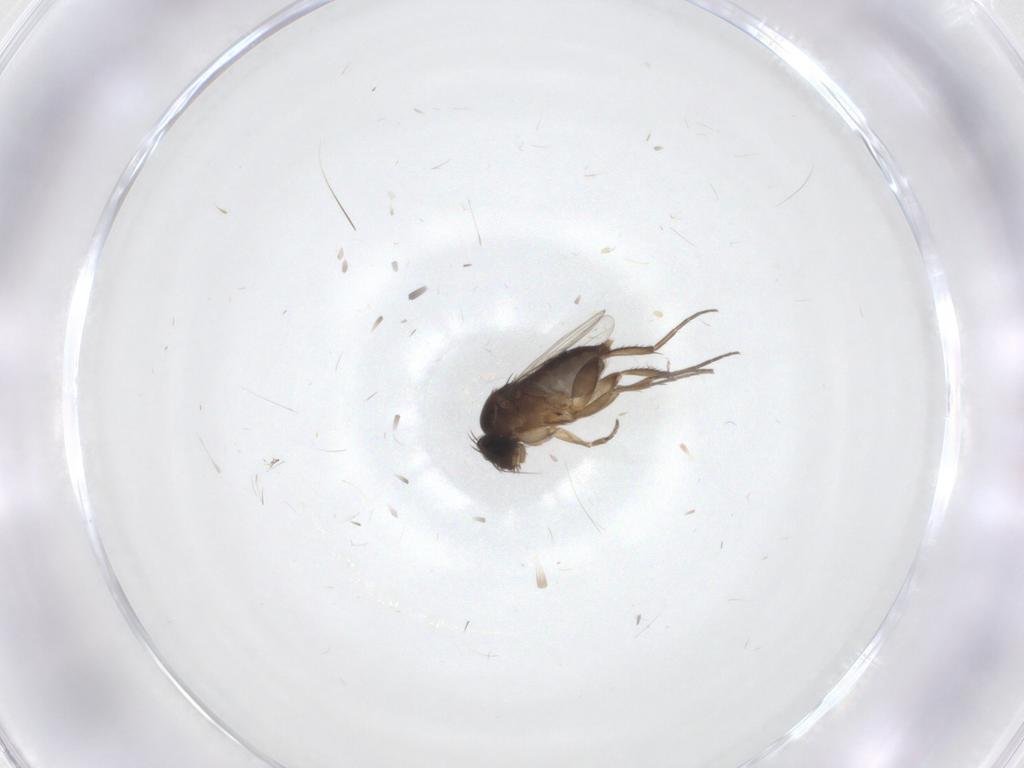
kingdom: Animalia
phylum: Arthropoda
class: Insecta
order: Diptera
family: Phoridae
